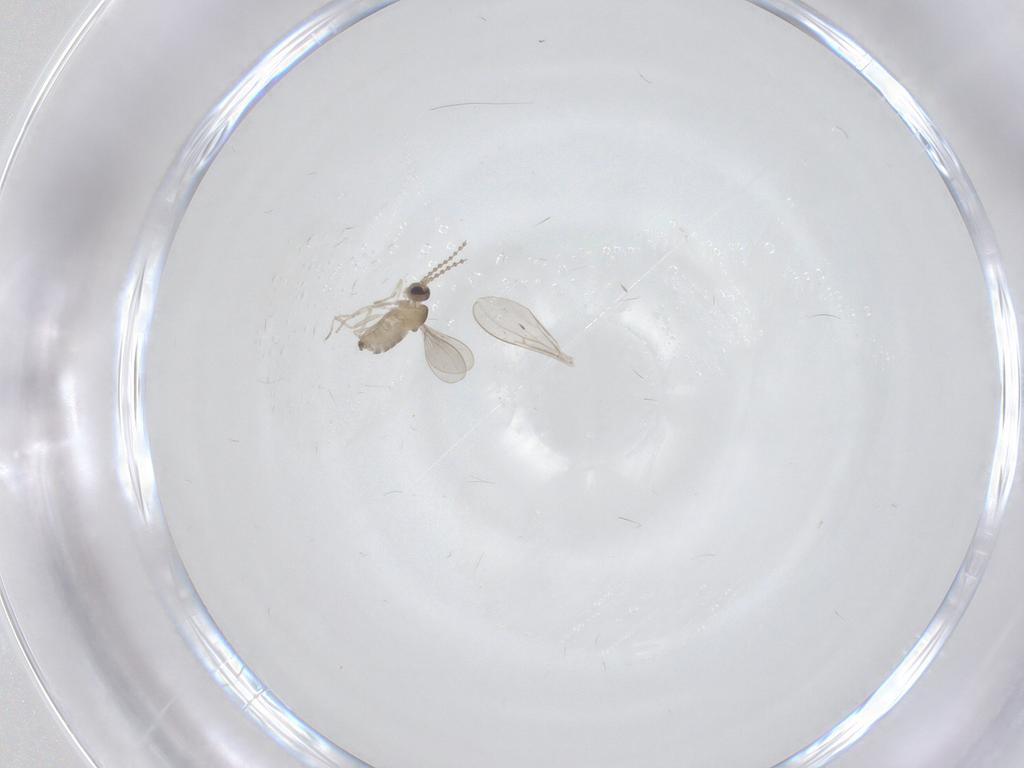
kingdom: Animalia
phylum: Arthropoda
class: Insecta
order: Diptera
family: Cecidomyiidae
